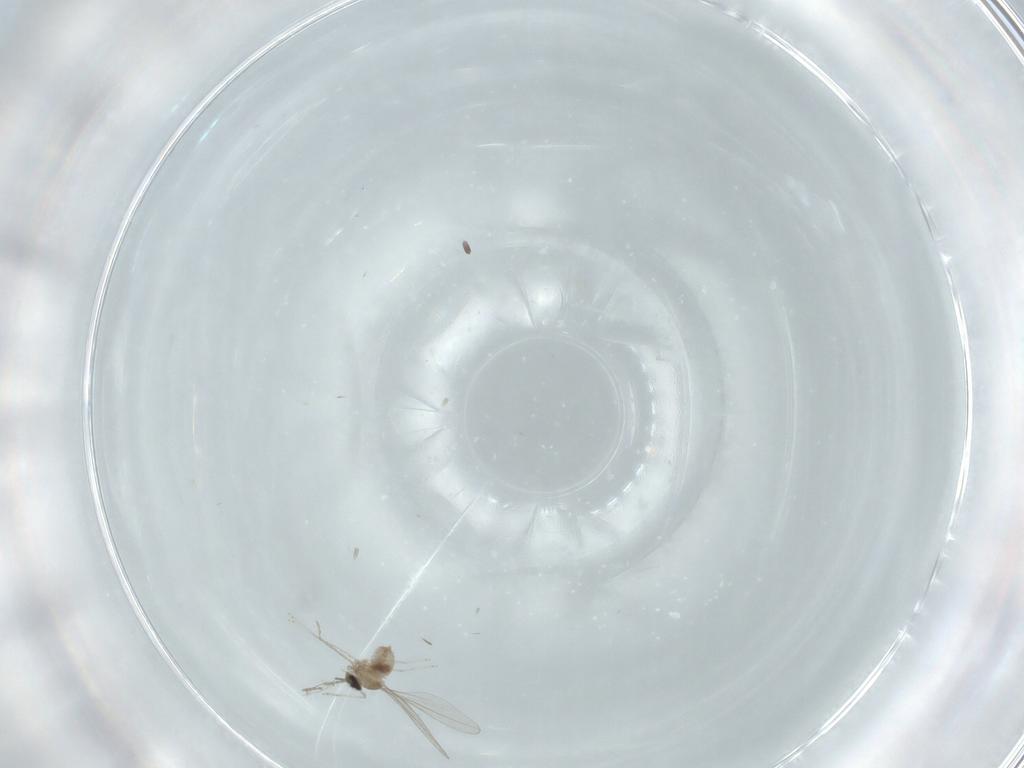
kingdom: Animalia
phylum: Arthropoda
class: Insecta
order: Diptera
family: Cecidomyiidae
